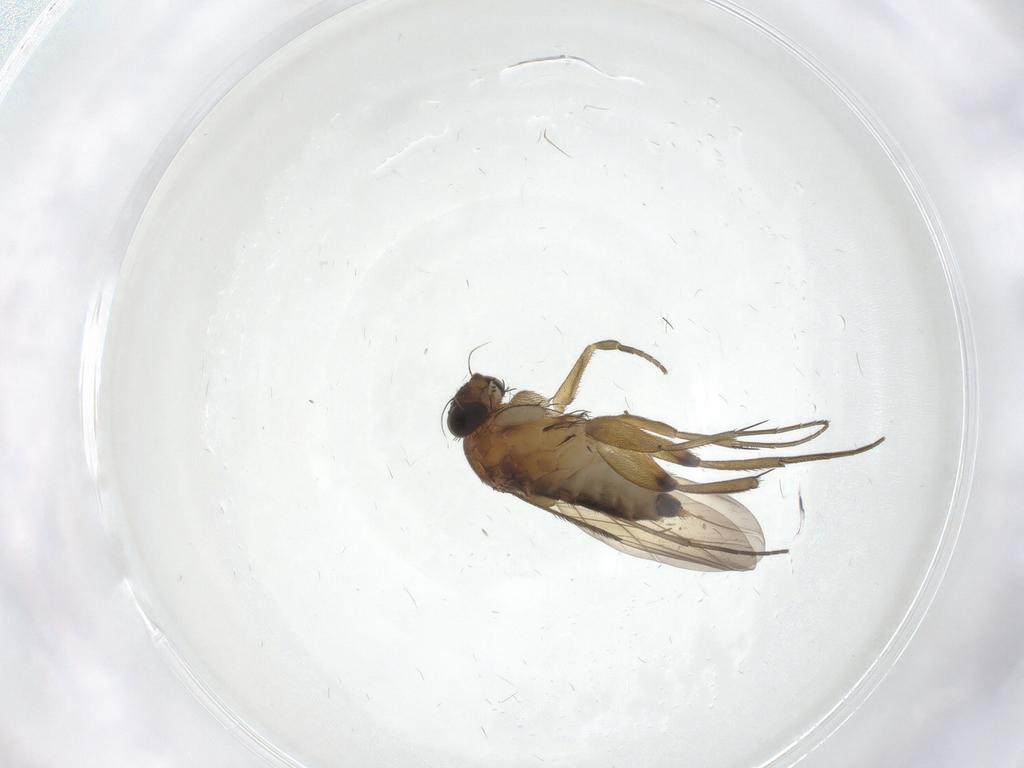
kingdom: Animalia
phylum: Arthropoda
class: Insecta
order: Diptera
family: Phoridae
